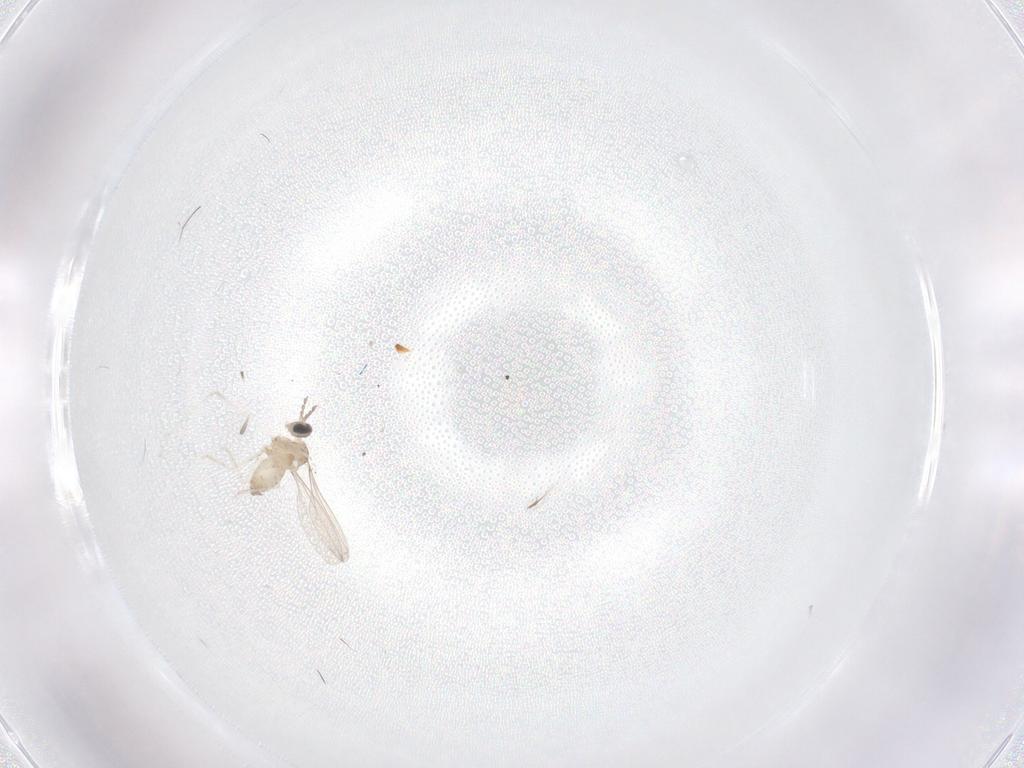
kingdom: Animalia
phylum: Arthropoda
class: Insecta
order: Diptera
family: Cecidomyiidae
